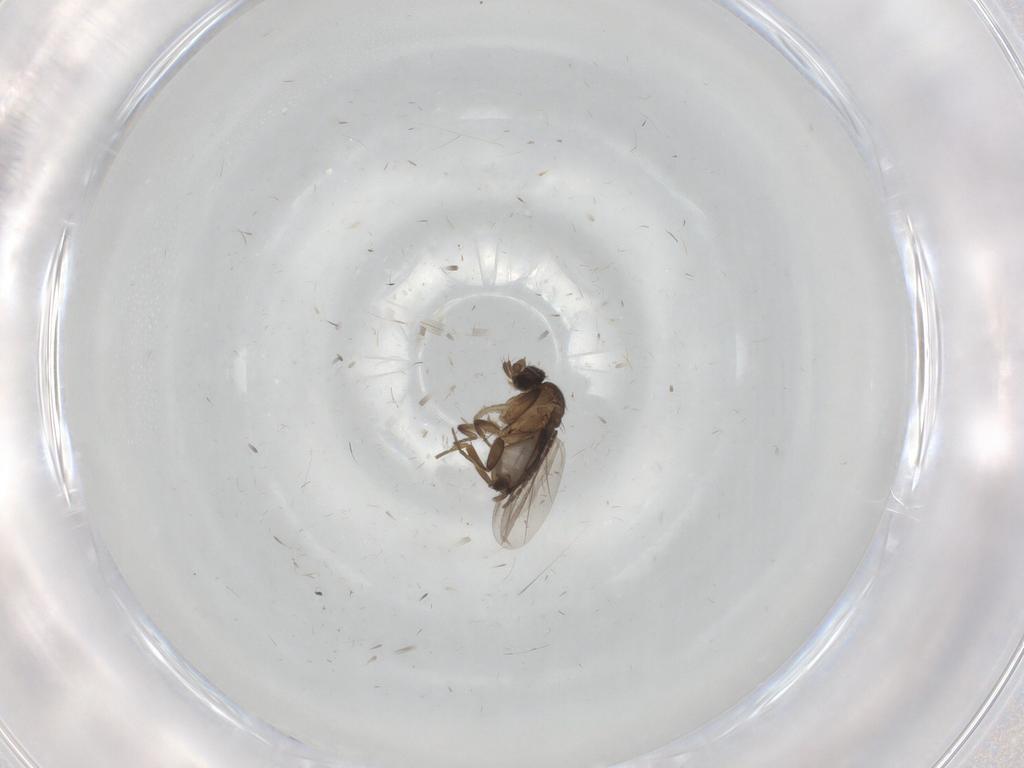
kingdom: Animalia
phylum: Arthropoda
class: Insecta
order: Diptera
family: Phoridae
